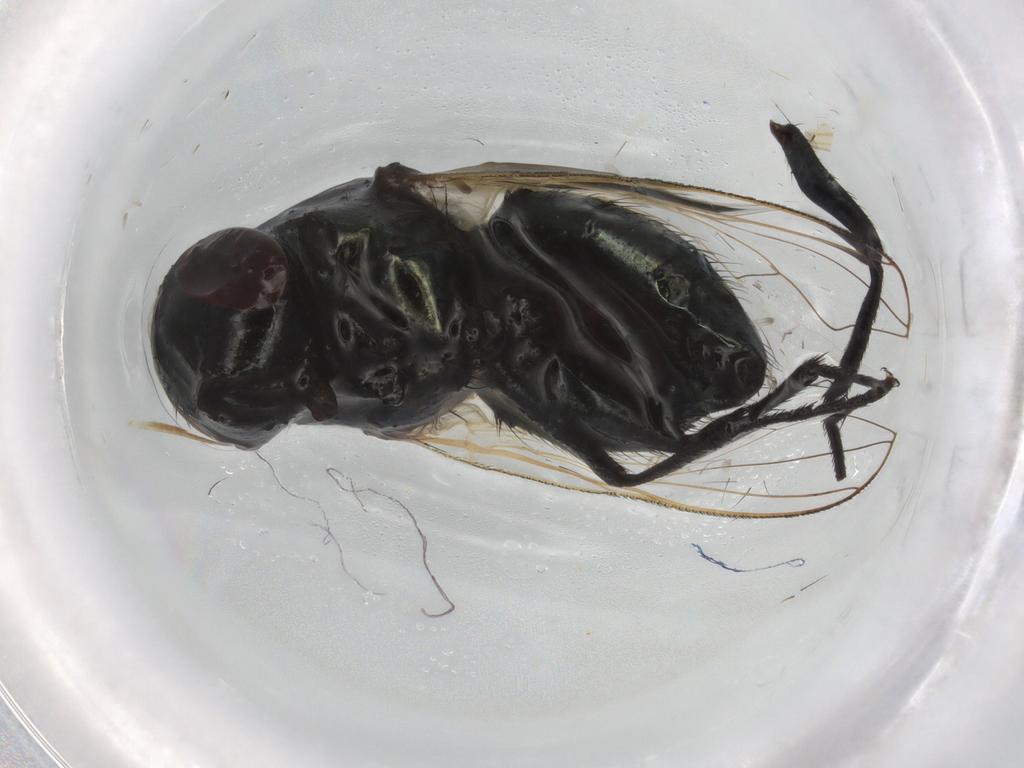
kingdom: Animalia
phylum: Arthropoda
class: Insecta
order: Diptera
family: Muscidae
